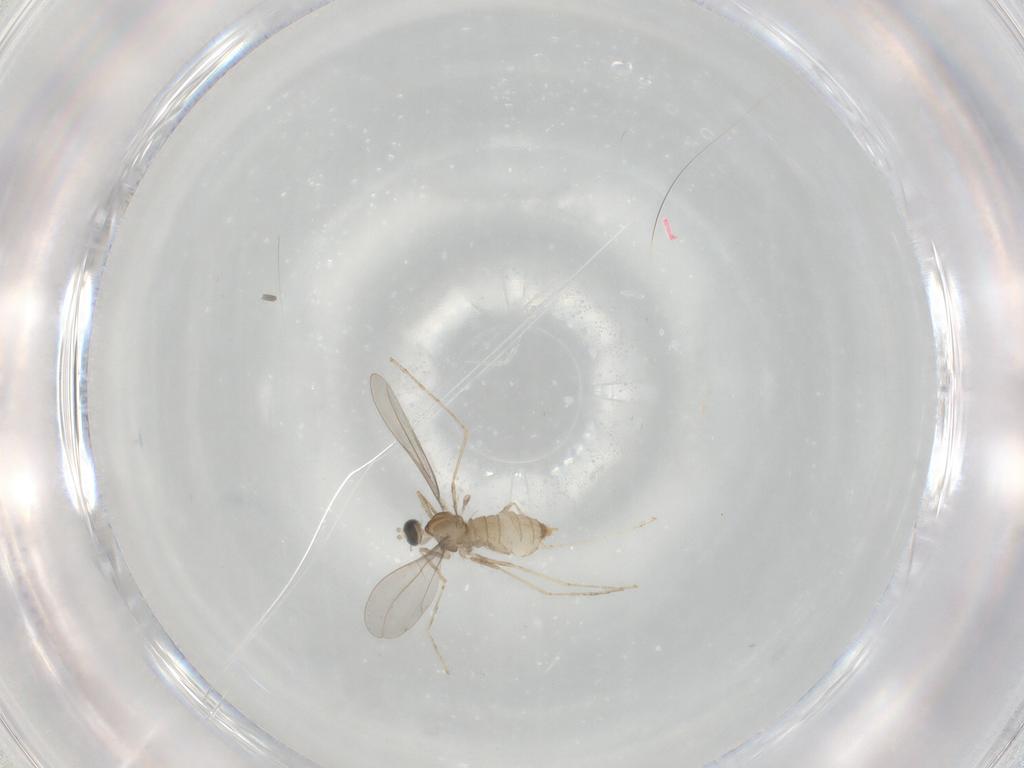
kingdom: Animalia
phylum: Arthropoda
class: Insecta
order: Diptera
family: Cecidomyiidae
